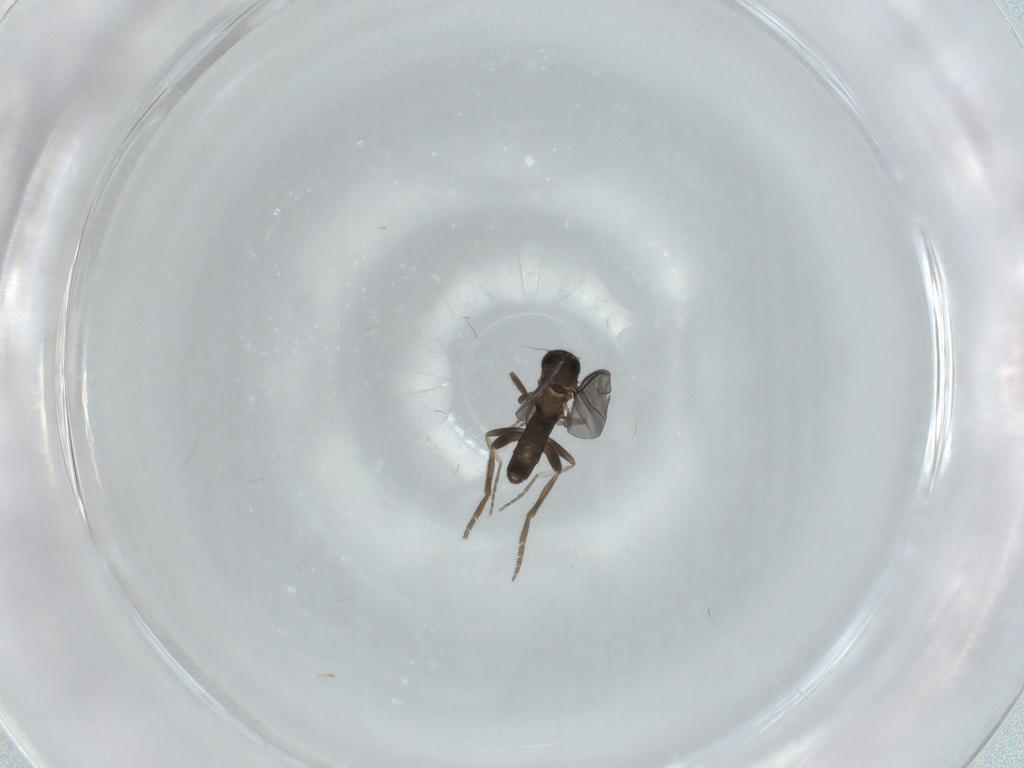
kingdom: Animalia
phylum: Arthropoda
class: Insecta
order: Diptera
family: Phoridae
